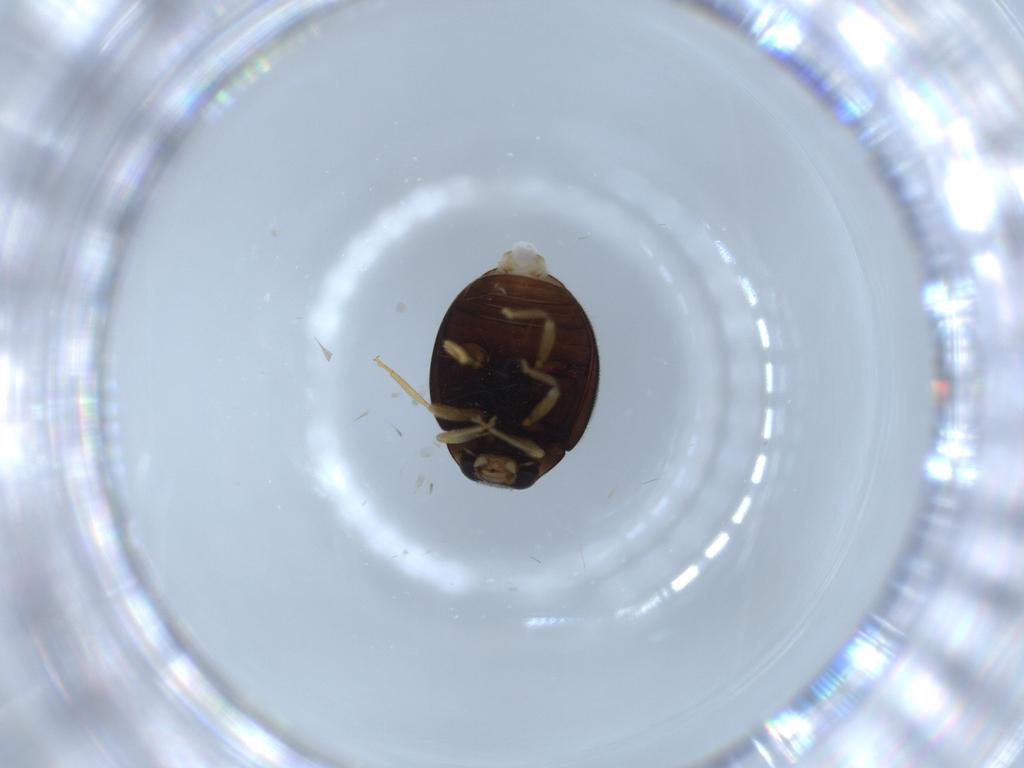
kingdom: Animalia
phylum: Arthropoda
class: Insecta
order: Coleoptera
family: Coccinellidae
